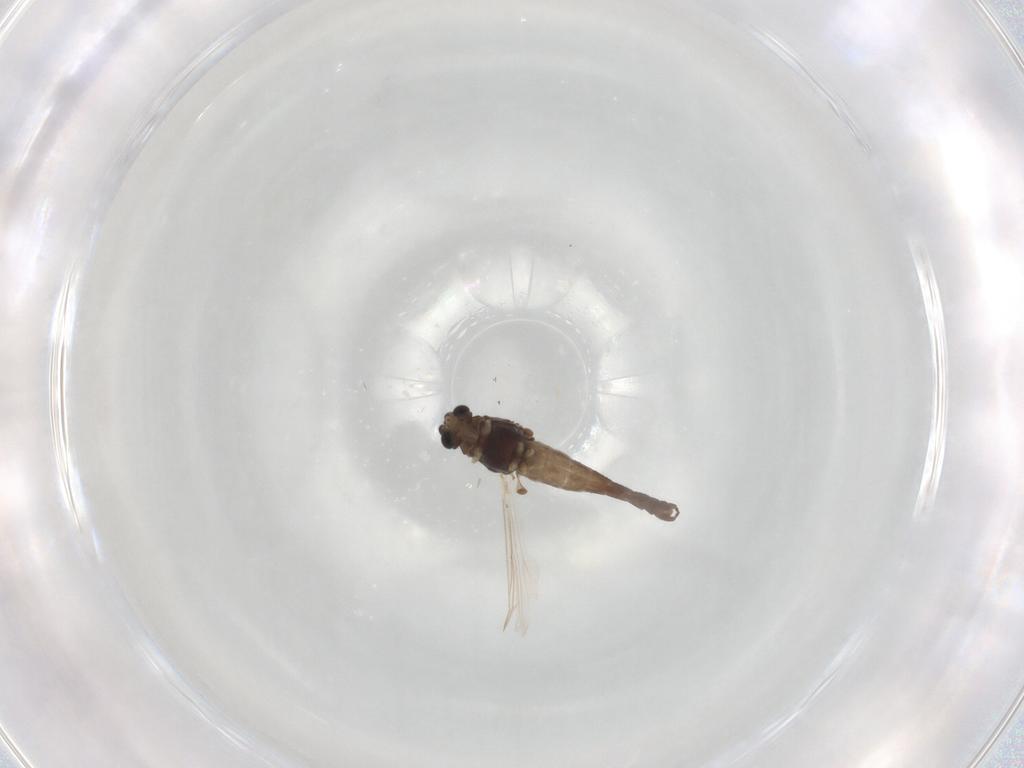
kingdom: Animalia
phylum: Arthropoda
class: Insecta
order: Diptera
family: Chironomidae
